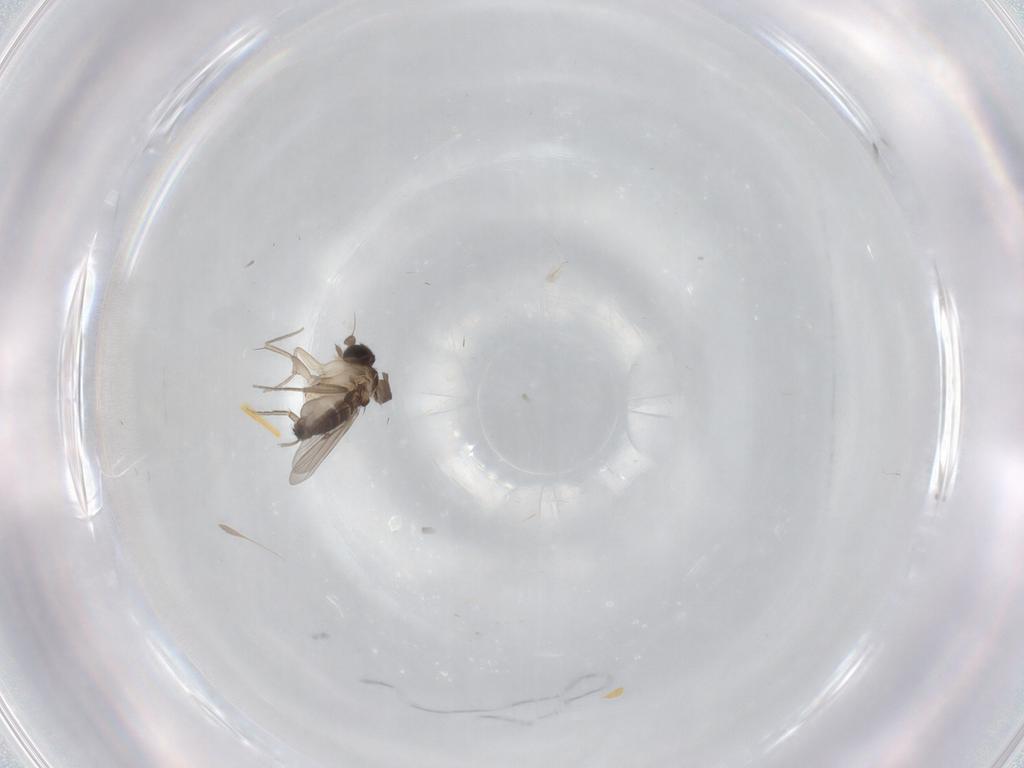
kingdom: Animalia
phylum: Arthropoda
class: Insecta
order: Diptera
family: Phoridae
